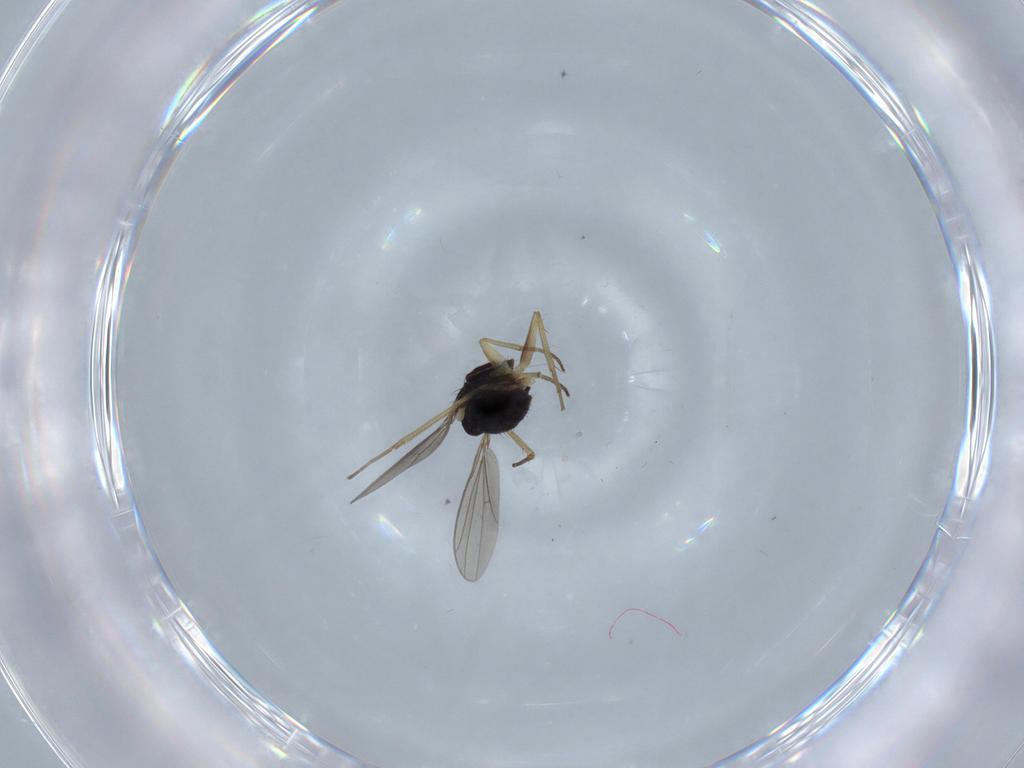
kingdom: Animalia
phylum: Arthropoda
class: Insecta
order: Diptera
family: Dolichopodidae
